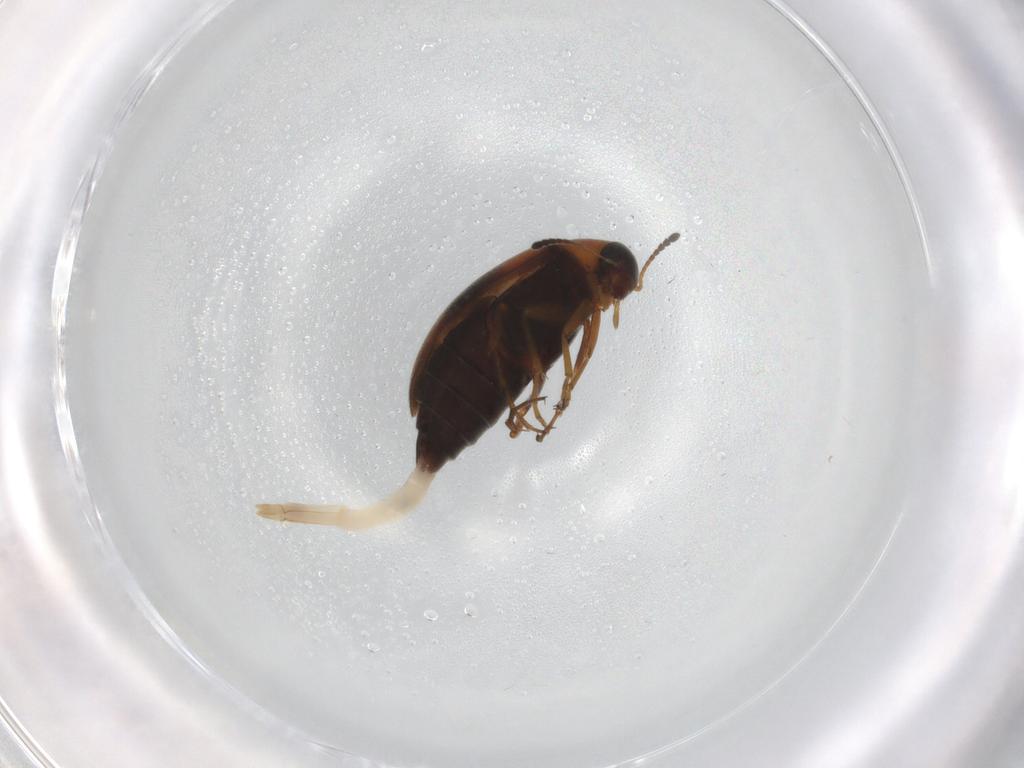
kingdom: Animalia
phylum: Arthropoda
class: Insecta
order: Coleoptera
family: Scraptiidae
